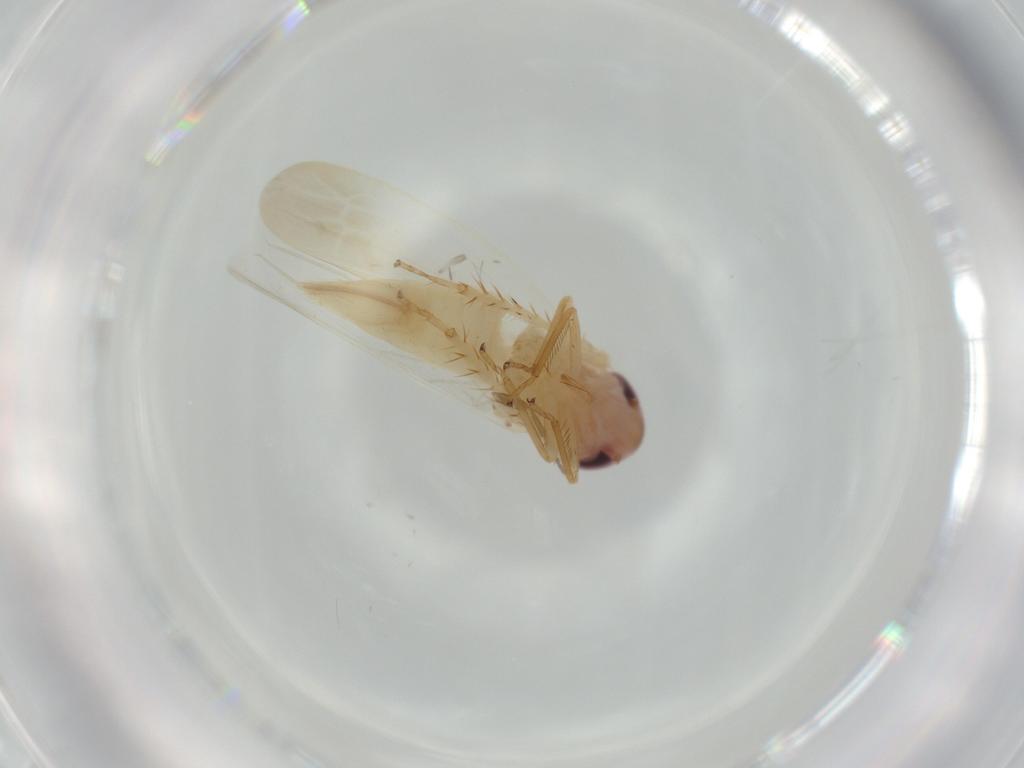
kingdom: Animalia
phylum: Arthropoda
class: Insecta
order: Hemiptera
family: Cicadellidae
